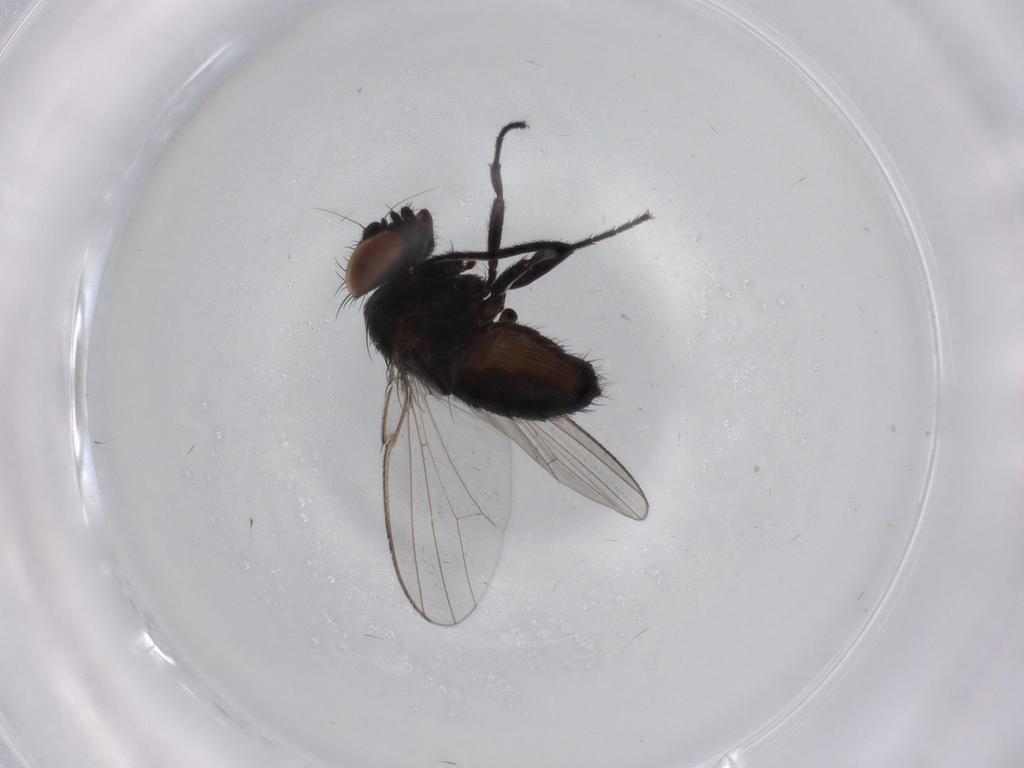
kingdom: Animalia
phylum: Arthropoda
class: Insecta
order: Diptera
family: Milichiidae
